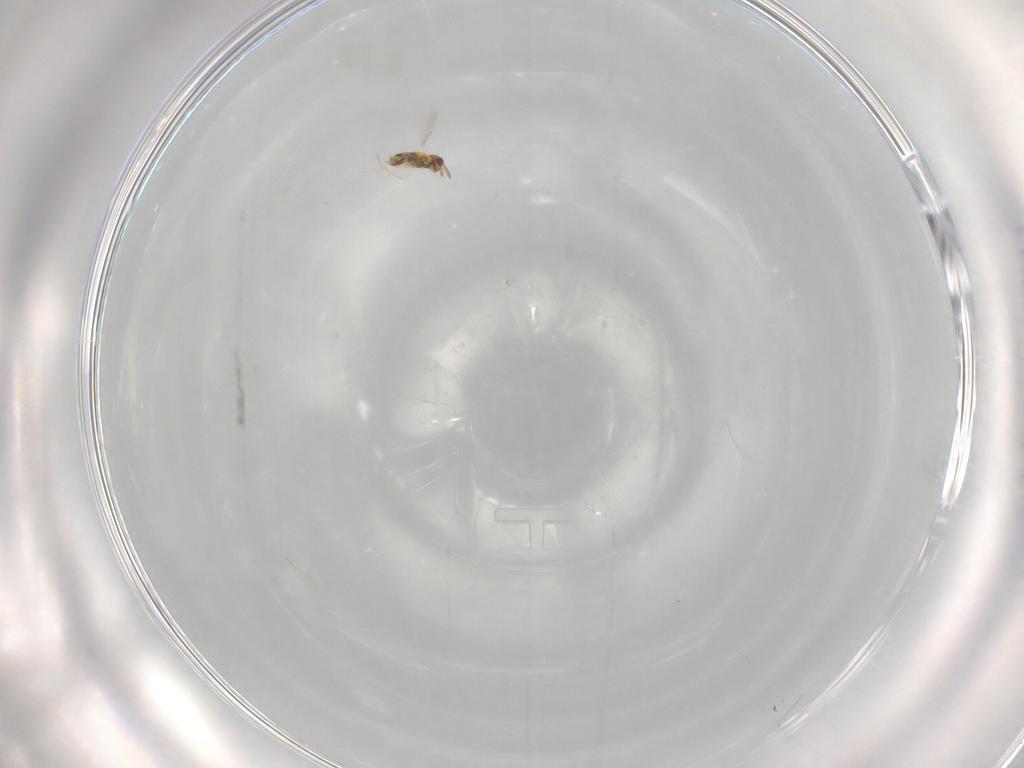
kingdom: Animalia
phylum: Arthropoda
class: Insecta
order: Hymenoptera
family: Aphelinidae
